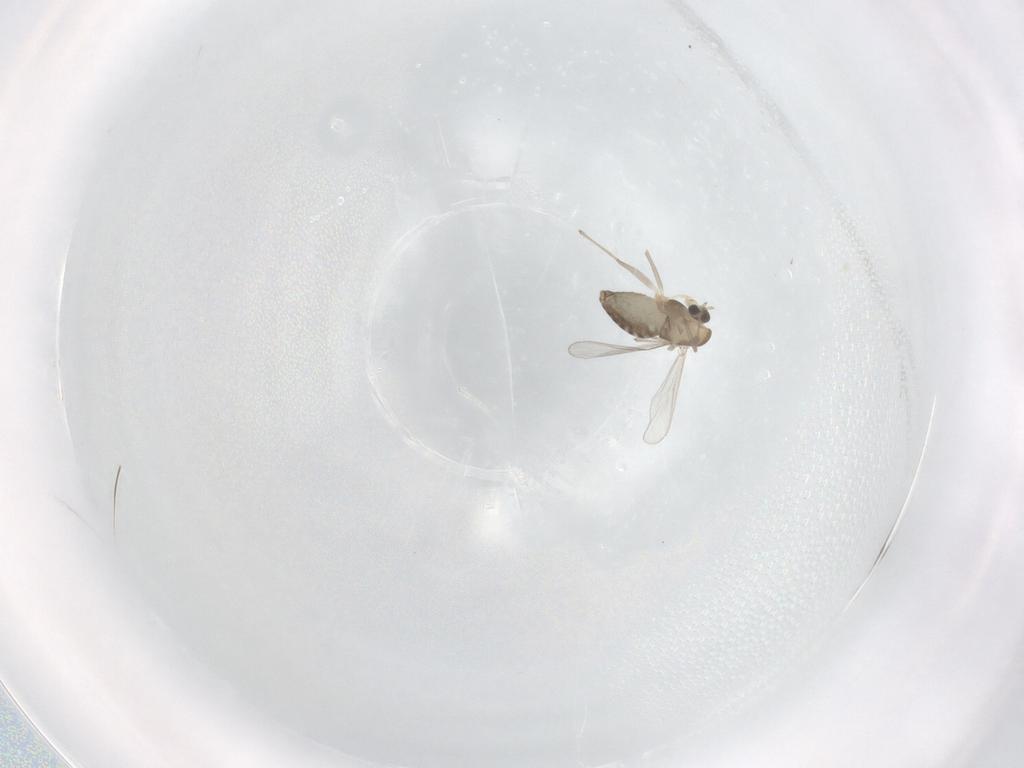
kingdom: Animalia
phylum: Arthropoda
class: Insecta
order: Diptera
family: Chironomidae
